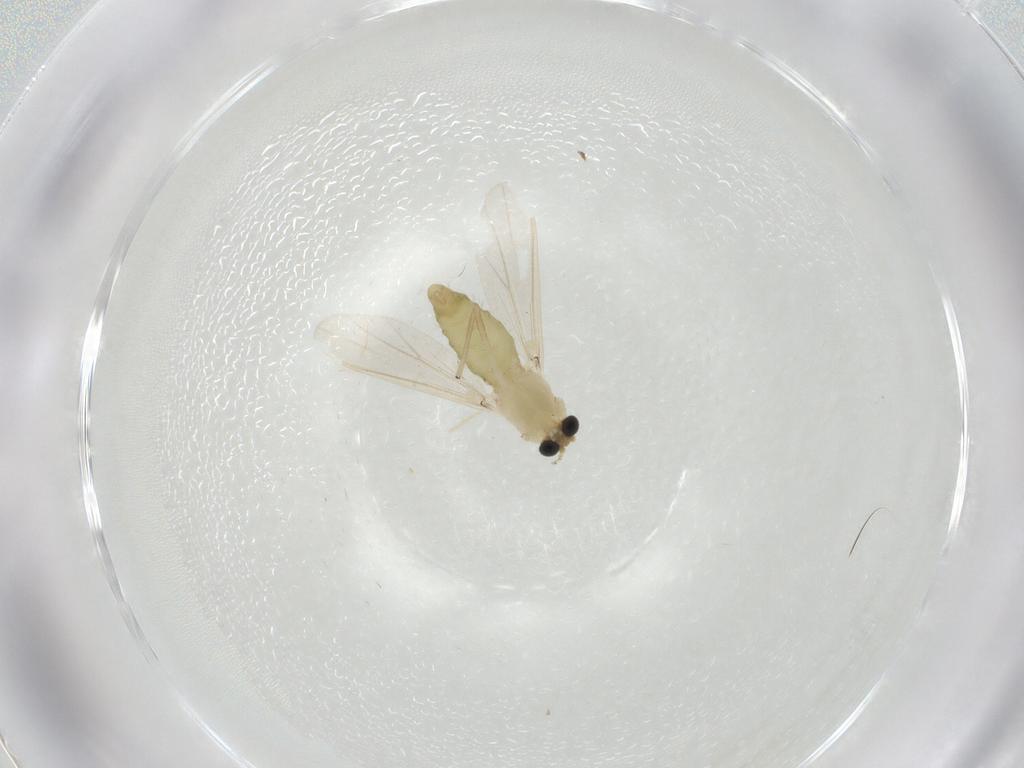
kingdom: Animalia
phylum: Arthropoda
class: Insecta
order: Diptera
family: Chironomidae
